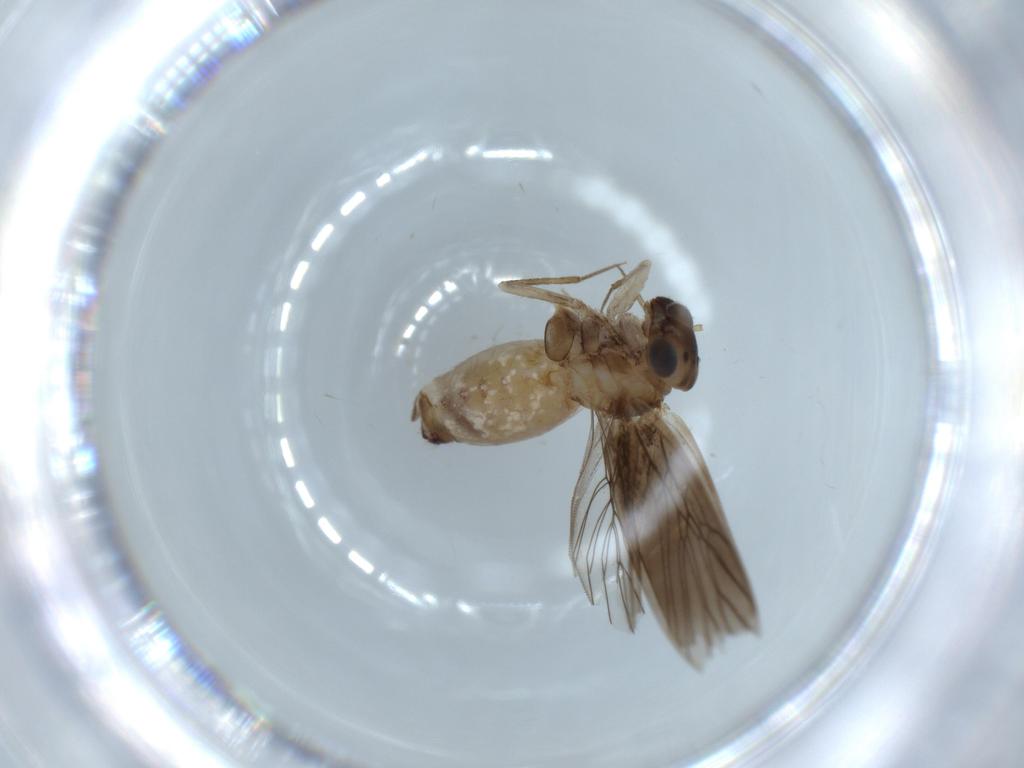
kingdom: Animalia
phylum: Arthropoda
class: Insecta
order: Psocodea
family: Lepidopsocidae
